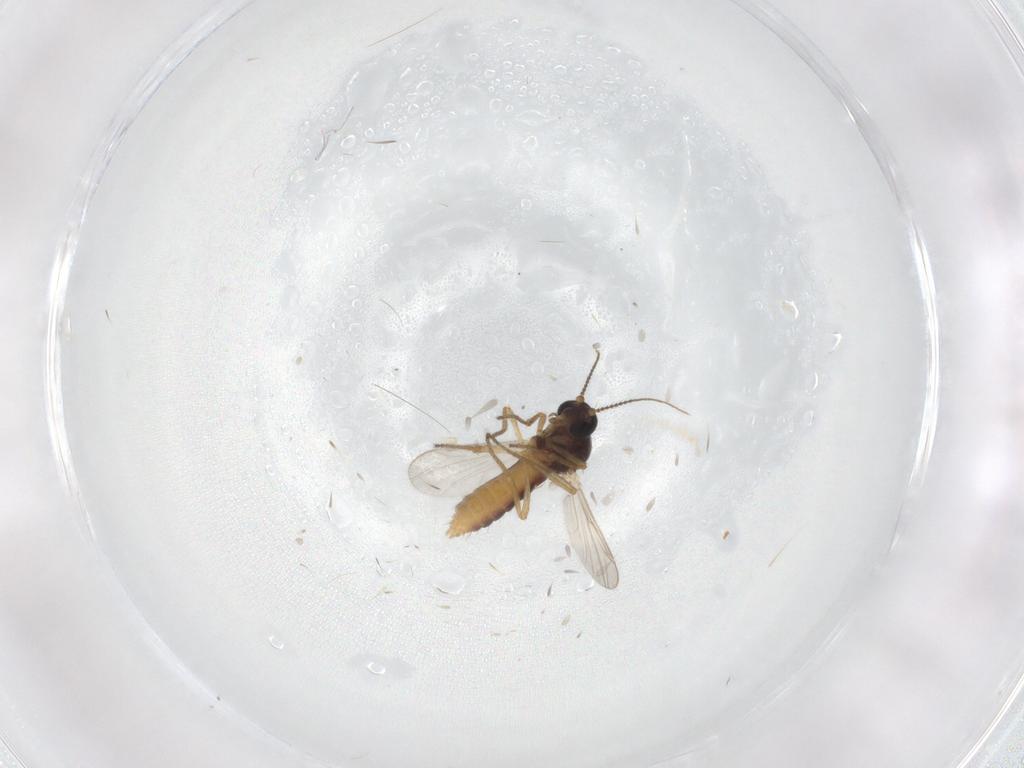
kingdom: Animalia
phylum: Arthropoda
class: Insecta
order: Diptera
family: Ceratopogonidae
